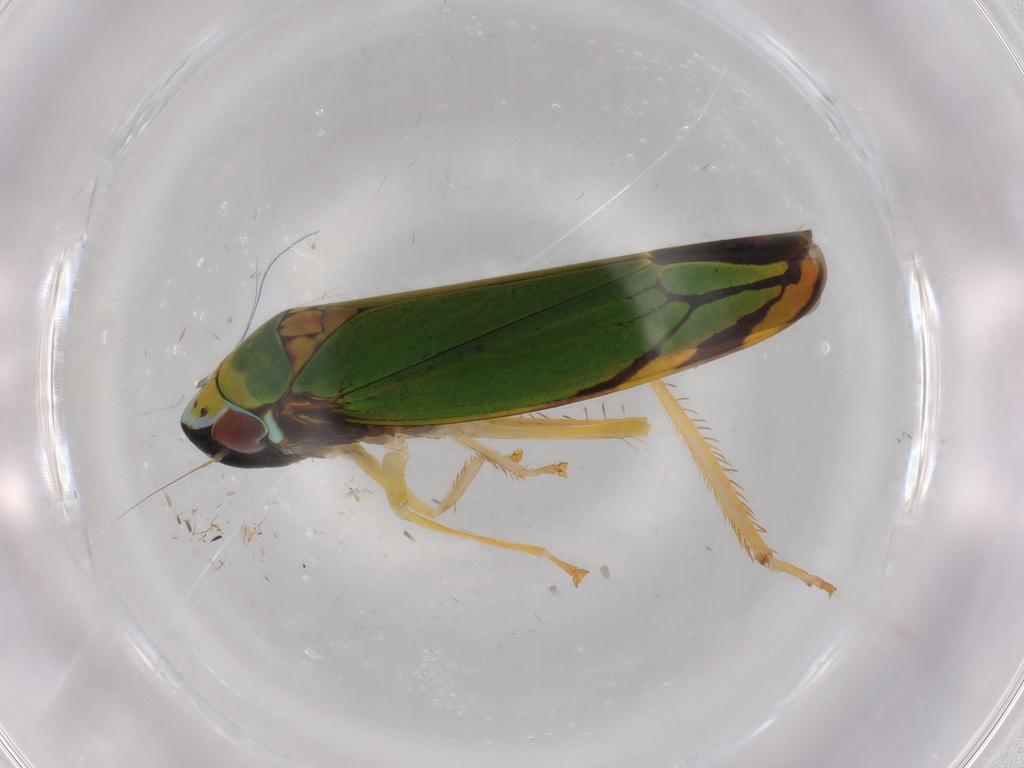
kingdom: Animalia
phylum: Arthropoda
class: Insecta
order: Hemiptera
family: Cicadellidae
